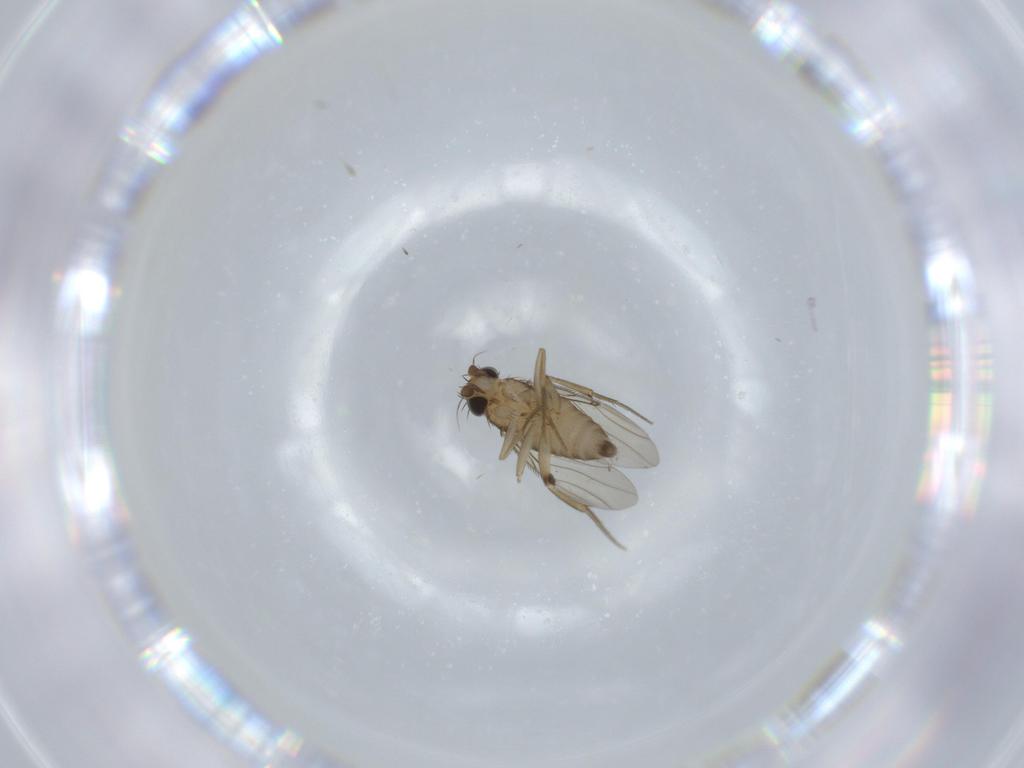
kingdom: Animalia
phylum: Arthropoda
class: Insecta
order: Diptera
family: Phoridae
